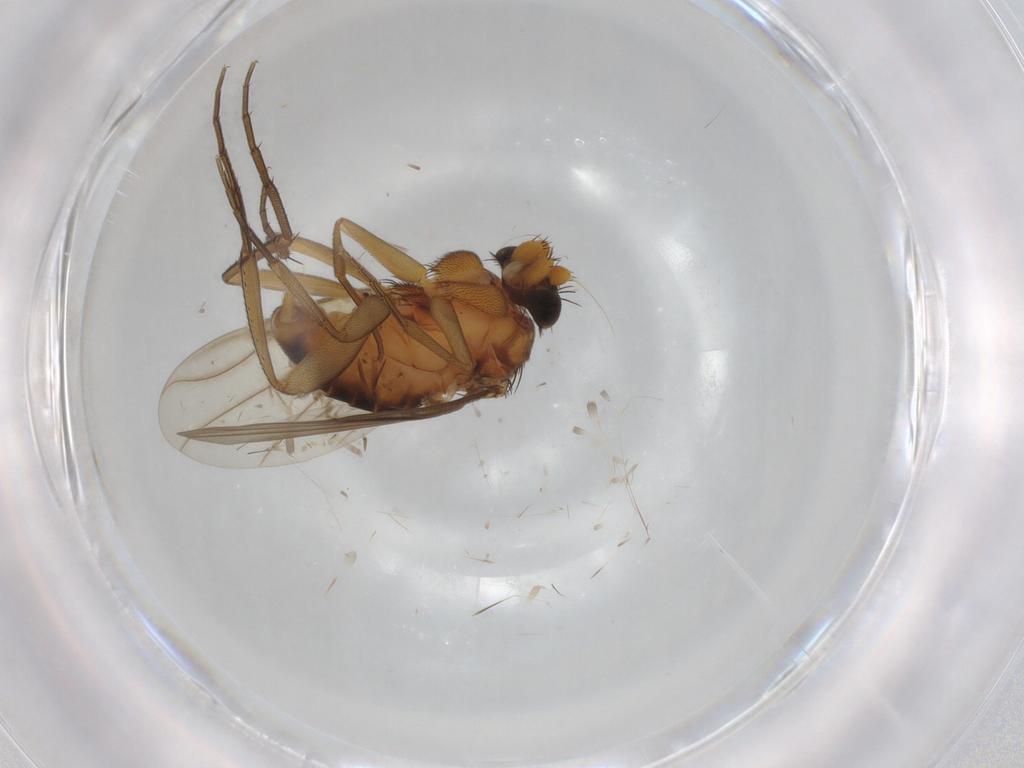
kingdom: Animalia
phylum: Arthropoda
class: Insecta
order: Diptera
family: Phoridae
